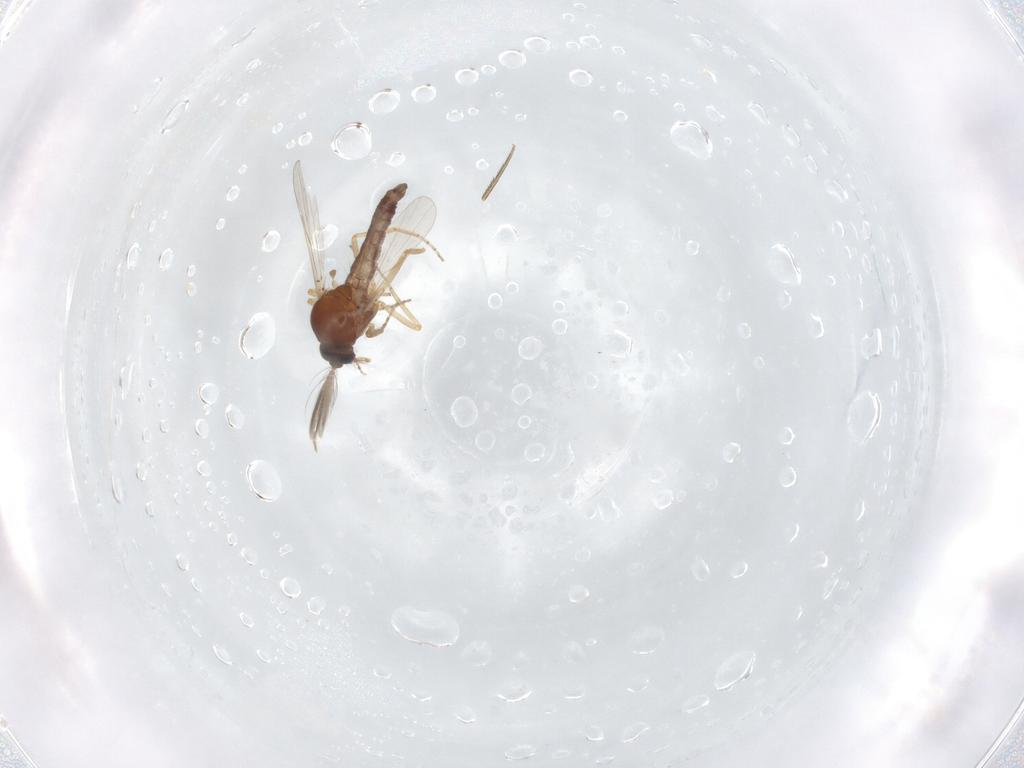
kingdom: Animalia
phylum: Arthropoda
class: Insecta
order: Diptera
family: Ceratopogonidae
